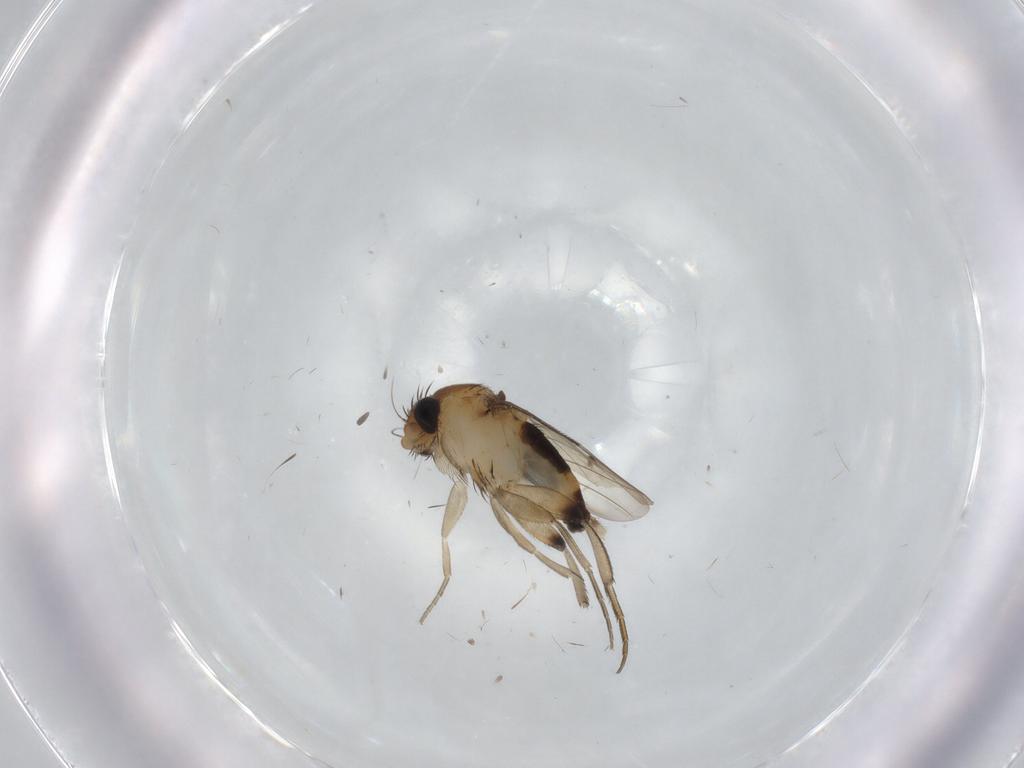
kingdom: Animalia
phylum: Arthropoda
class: Insecta
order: Diptera
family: Phoridae
